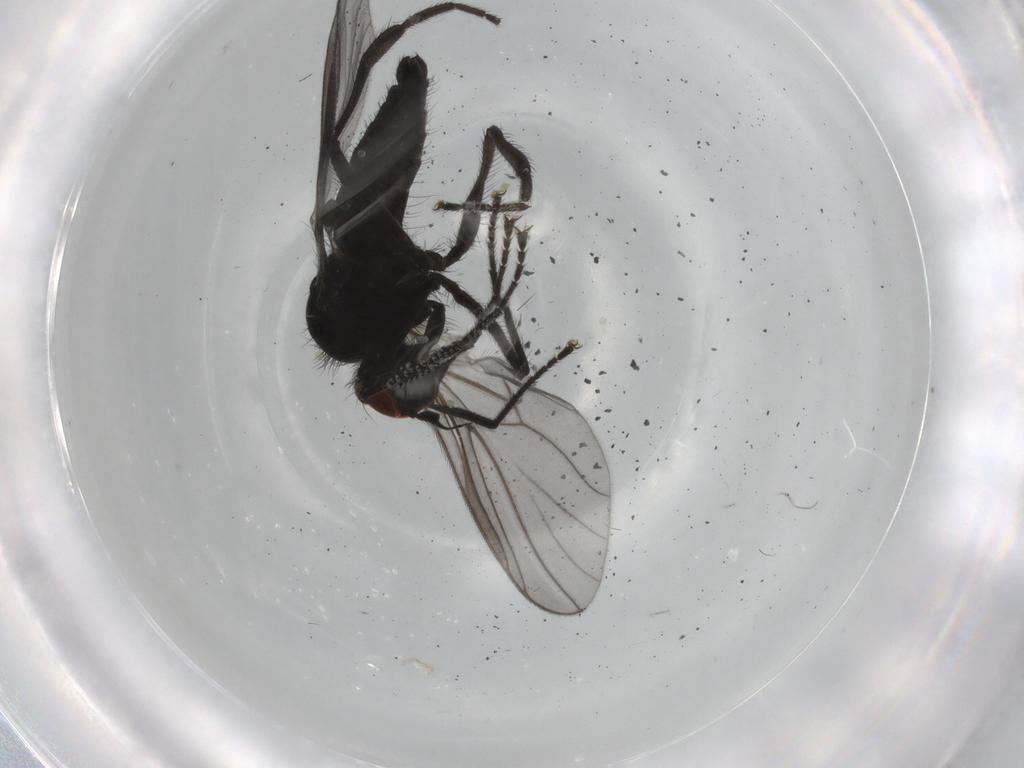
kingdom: Animalia
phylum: Arthropoda
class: Insecta
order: Diptera
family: Hybotidae
